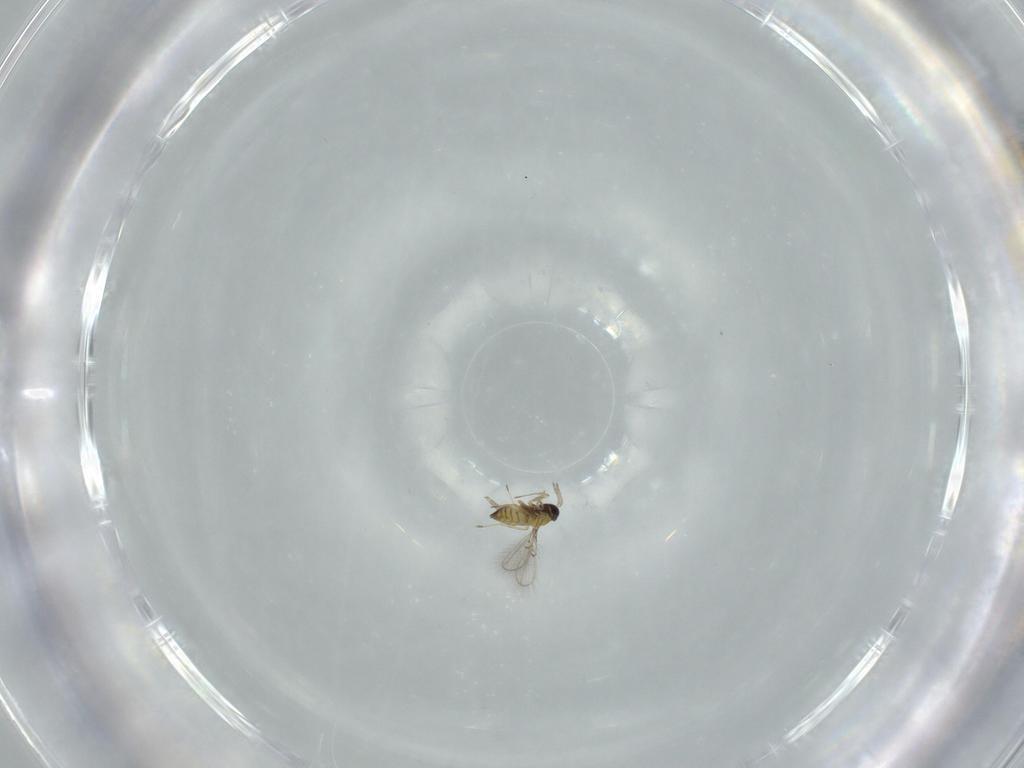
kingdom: Animalia
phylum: Arthropoda
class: Insecta
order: Hymenoptera
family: Trichogrammatidae
